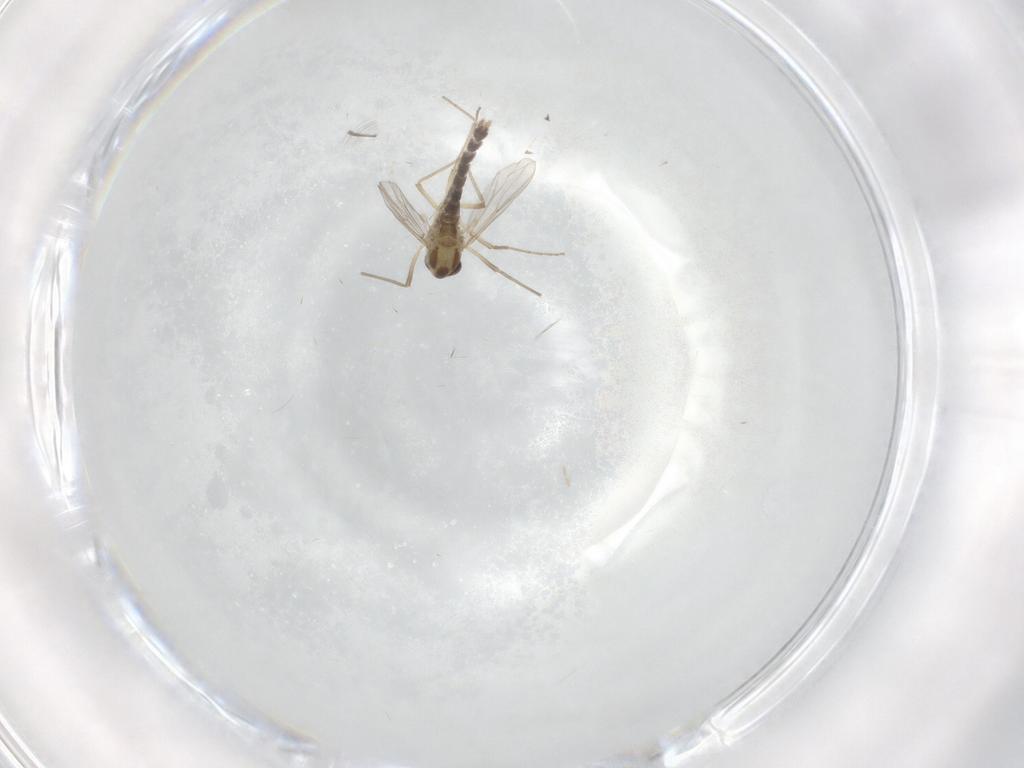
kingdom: Animalia
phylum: Arthropoda
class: Insecta
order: Diptera
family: Chironomidae
